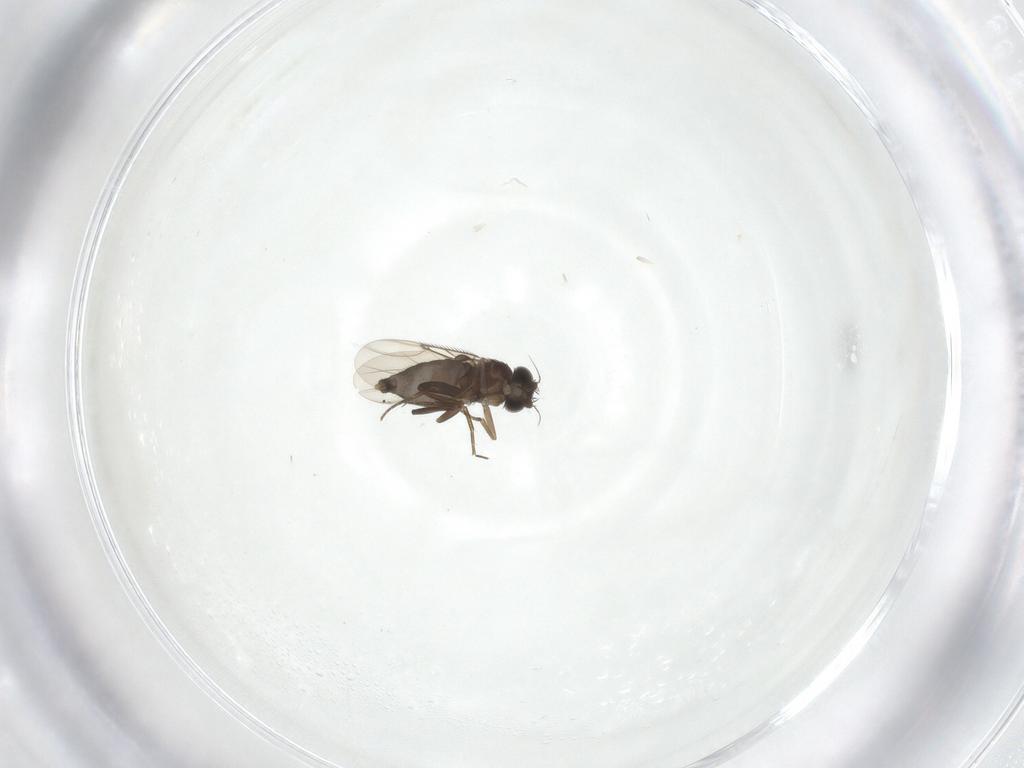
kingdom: Animalia
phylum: Arthropoda
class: Insecta
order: Diptera
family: Phoridae
